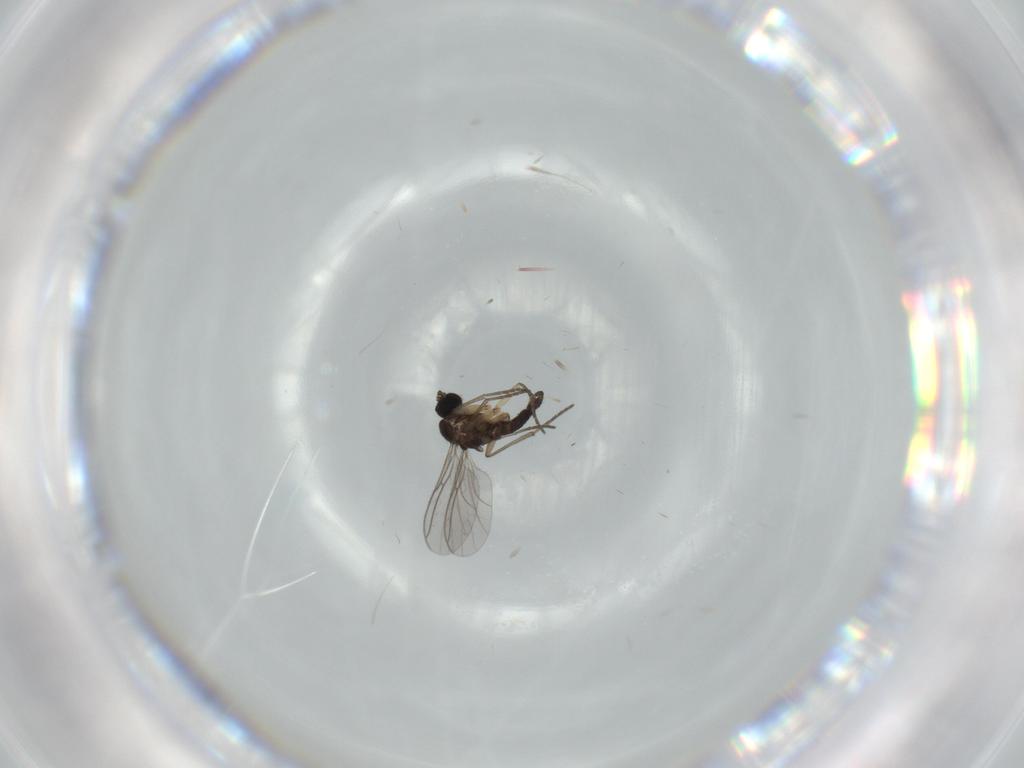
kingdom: Animalia
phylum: Arthropoda
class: Insecta
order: Diptera
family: Sciaridae
